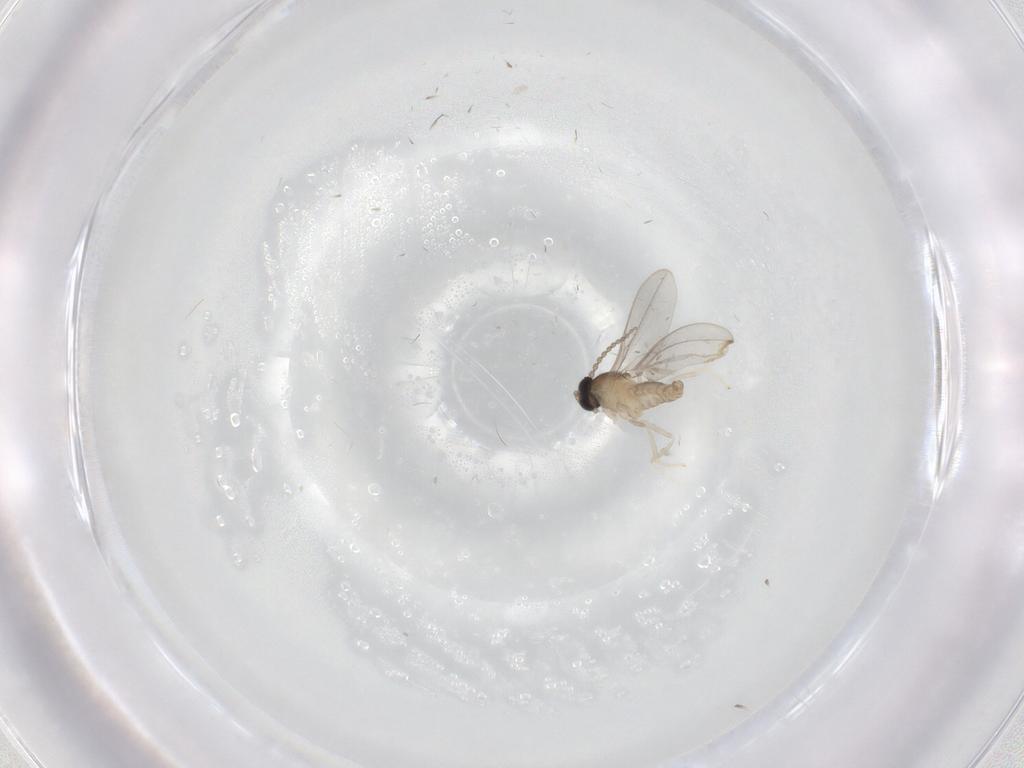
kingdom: Animalia
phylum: Arthropoda
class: Insecta
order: Diptera
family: Cecidomyiidae
